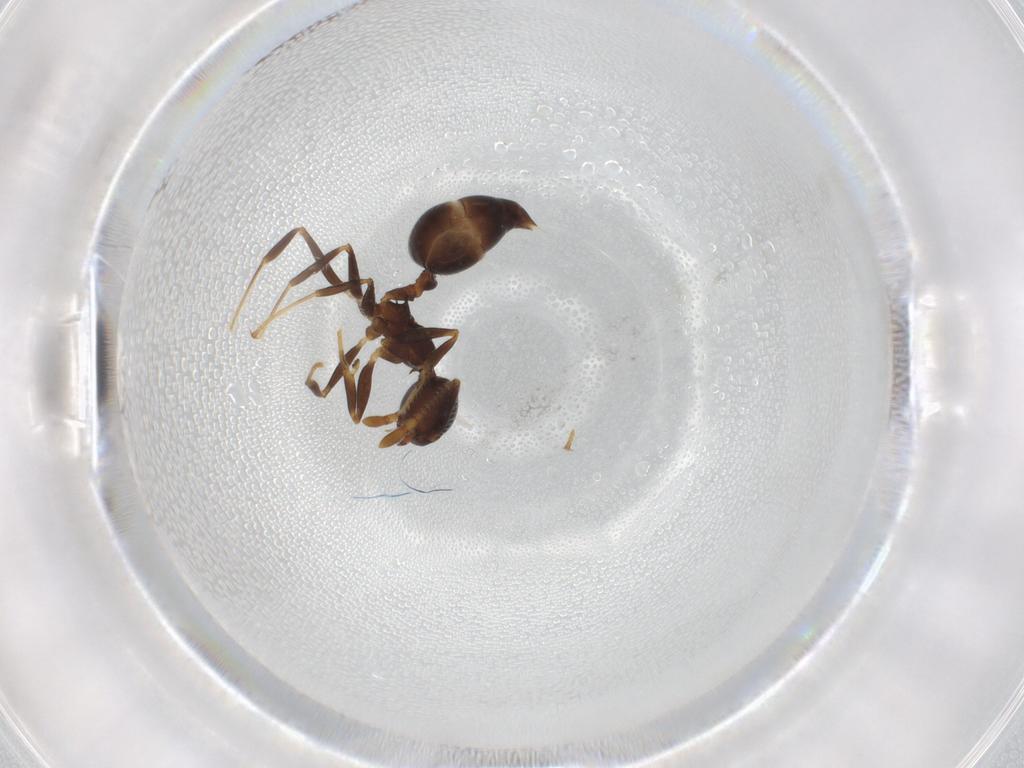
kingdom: Animalia
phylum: Arthropoda
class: Insecta
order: Hymenoptera
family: Formicidae
